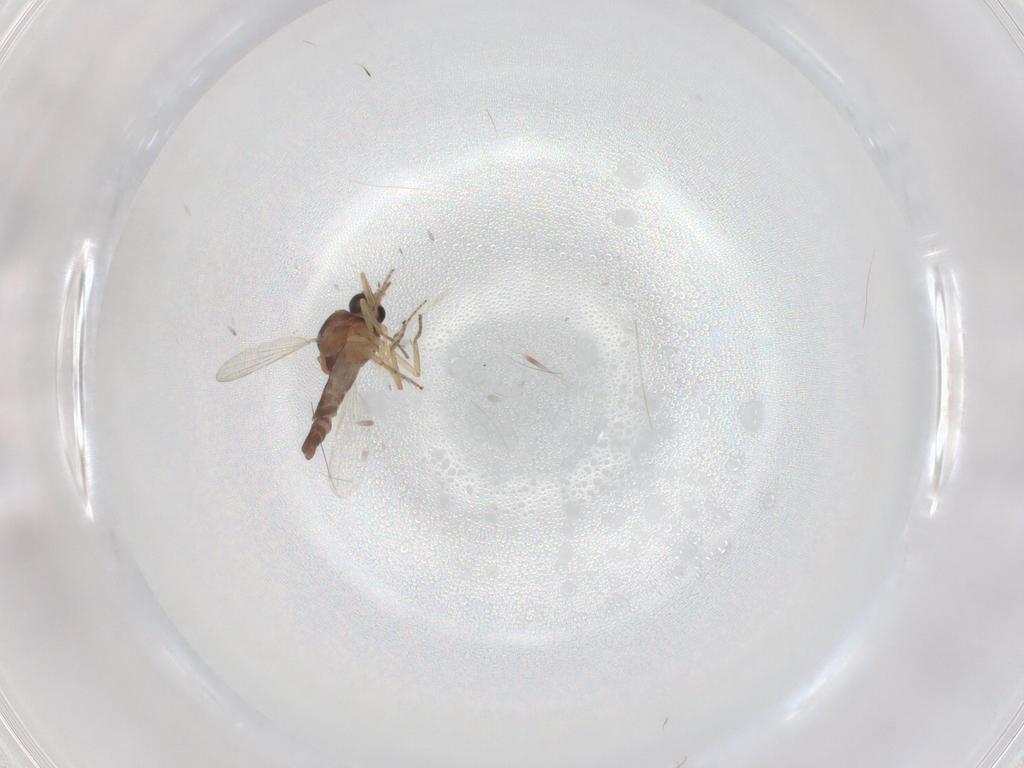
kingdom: Animalia
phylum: Arthropoda
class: Insecta
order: Diptera
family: Ceratopogonidae
